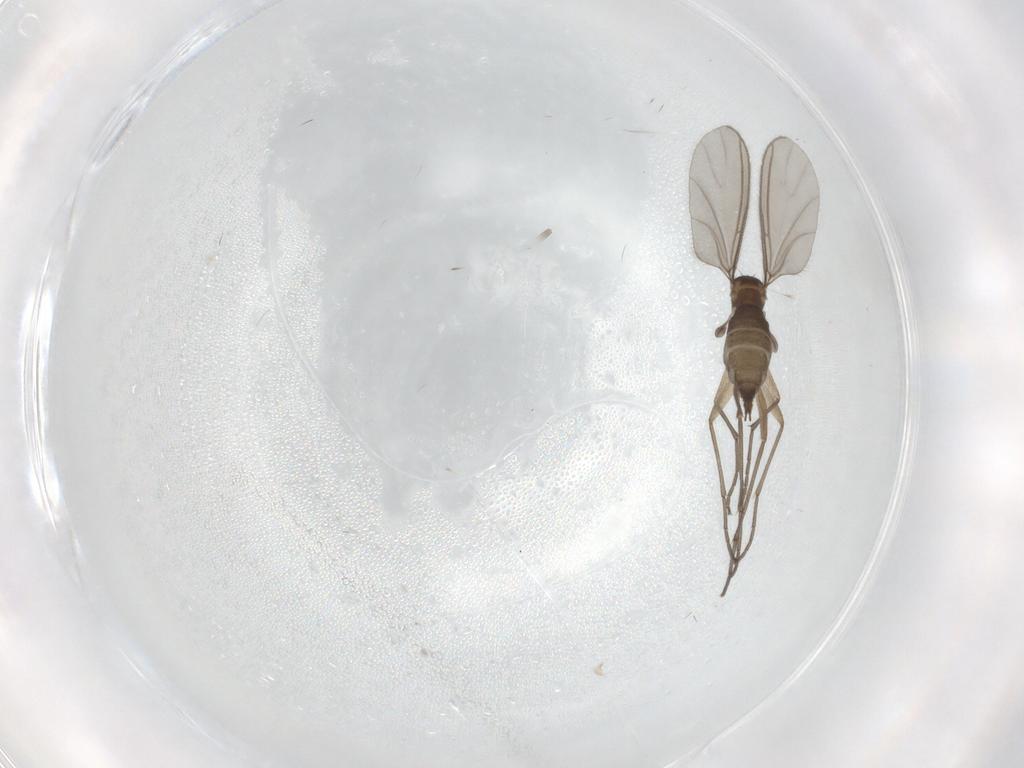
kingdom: Animalia
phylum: Arthropoda
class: Insecta
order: Diptera
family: Sciaridae
